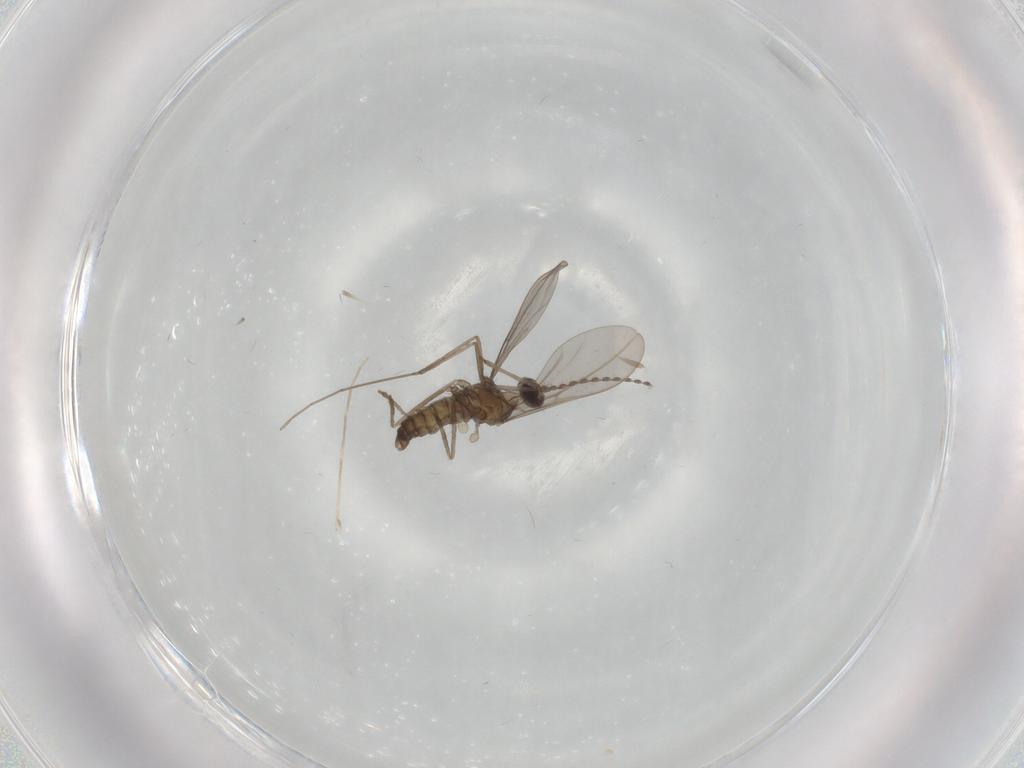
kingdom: Animalia
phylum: Arthropoda
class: Insecta
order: Diptera
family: Cecidomyiidae
